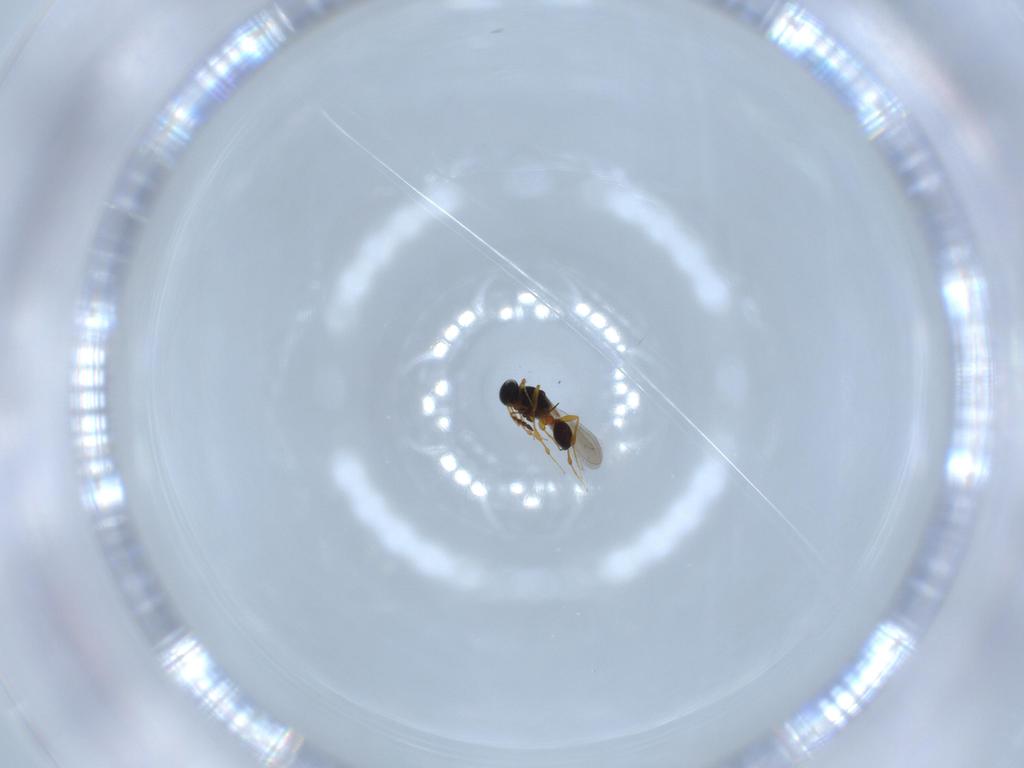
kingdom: Animalia
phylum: Arthropoda
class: Insecta
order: Hymenoptera
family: Platygastridae
